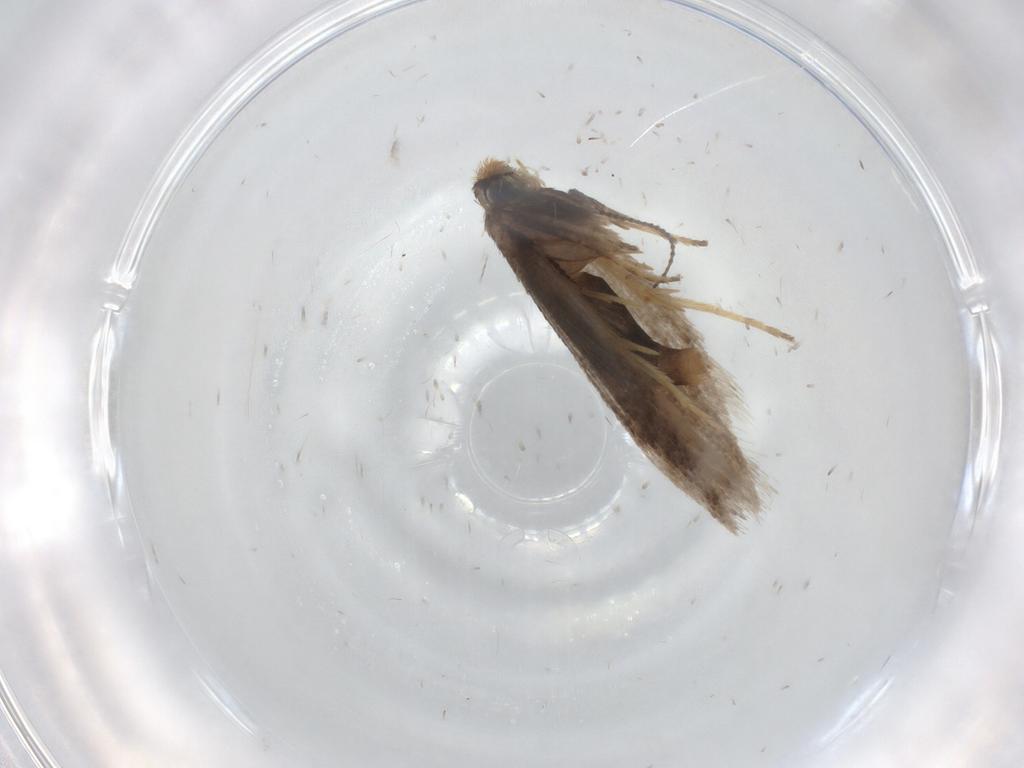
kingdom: Animalia
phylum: Arthropoda
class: Insecta
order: Lepidoptera
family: Nepticulidae
